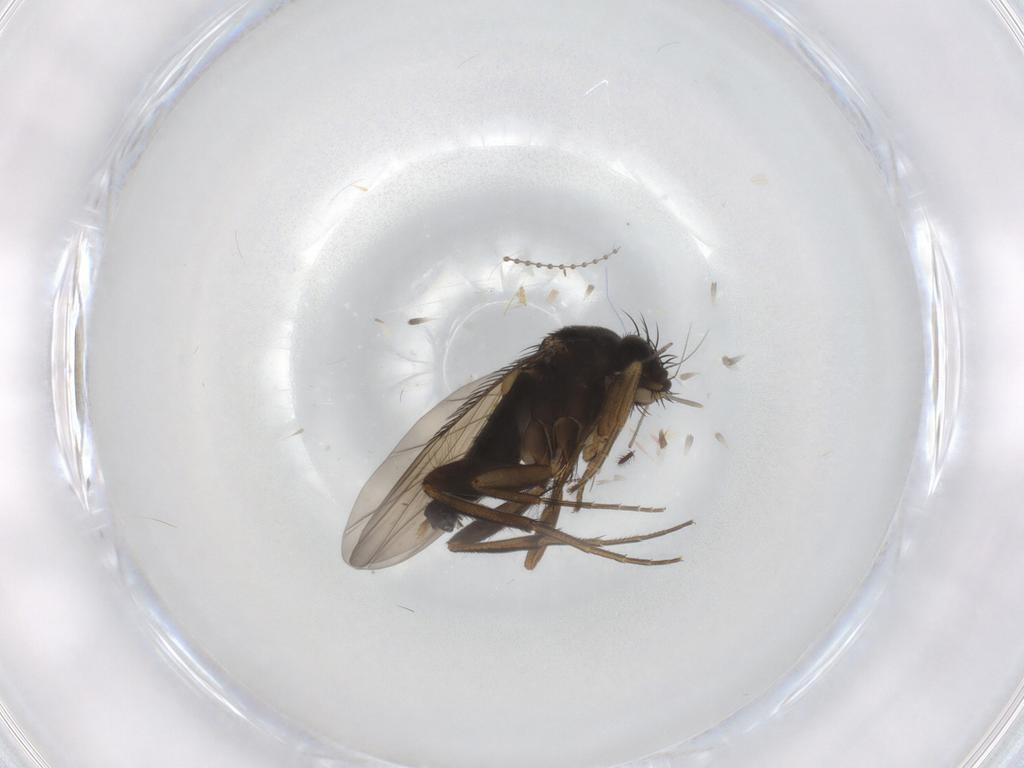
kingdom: Animalia
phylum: Arthropoda
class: Insecta
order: Diptera
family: Phoridae
